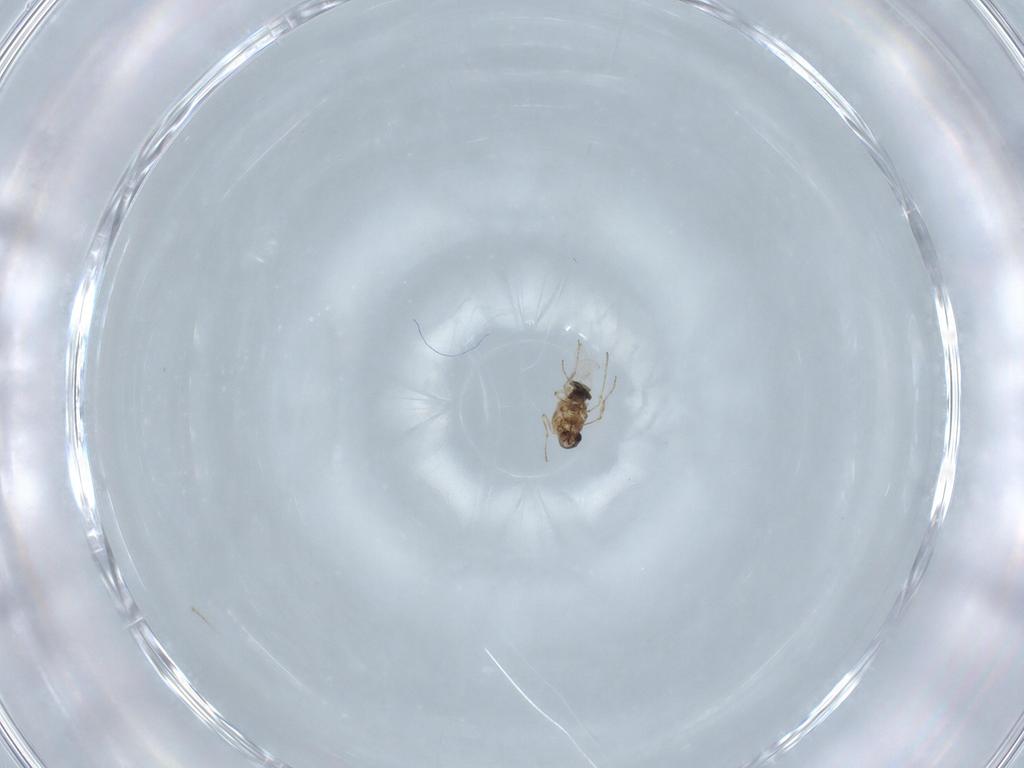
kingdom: Animalia
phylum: Arthropoda
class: Insecta
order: Diptera
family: Ceratopogonidae
